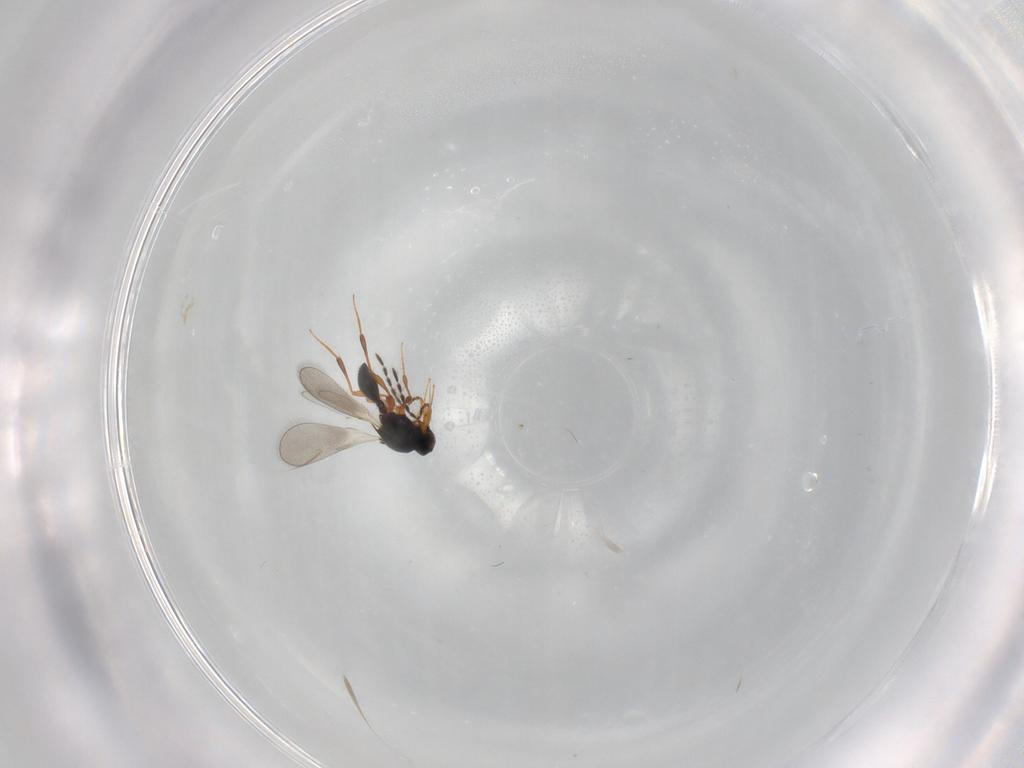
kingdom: Animalia
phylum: Arthropoda
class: Insecta
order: Hymenoptera
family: Platygastridae
